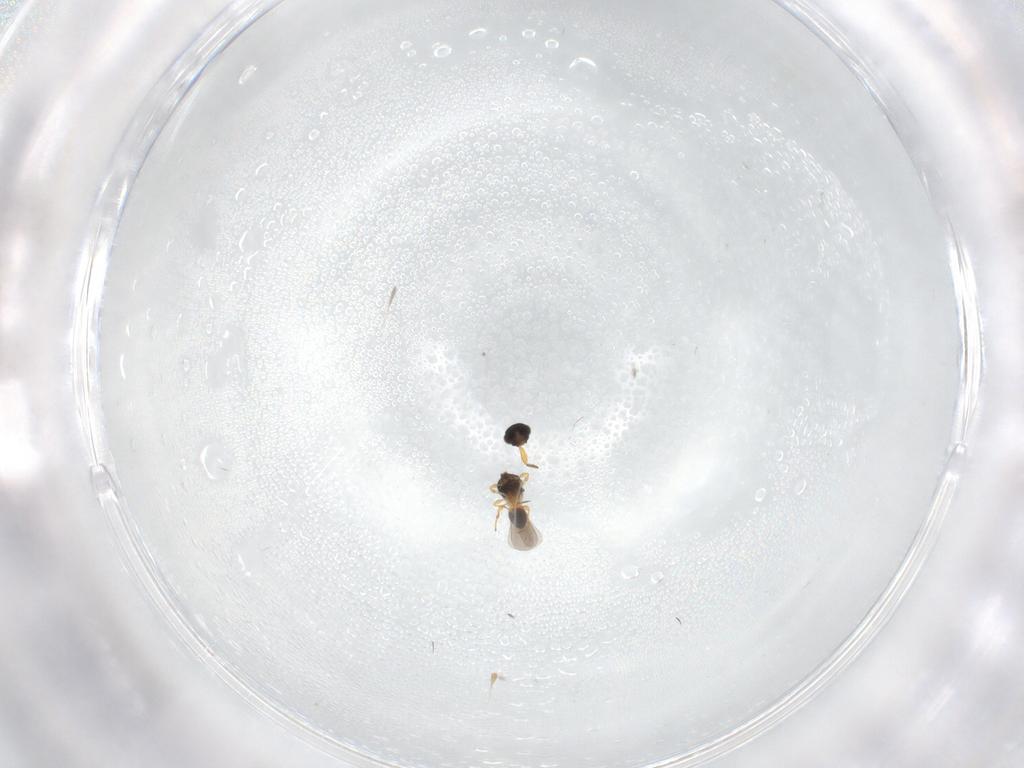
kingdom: Animalia
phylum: Arthropoda
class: Insecta
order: Hymenoptera
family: Platygastridae
